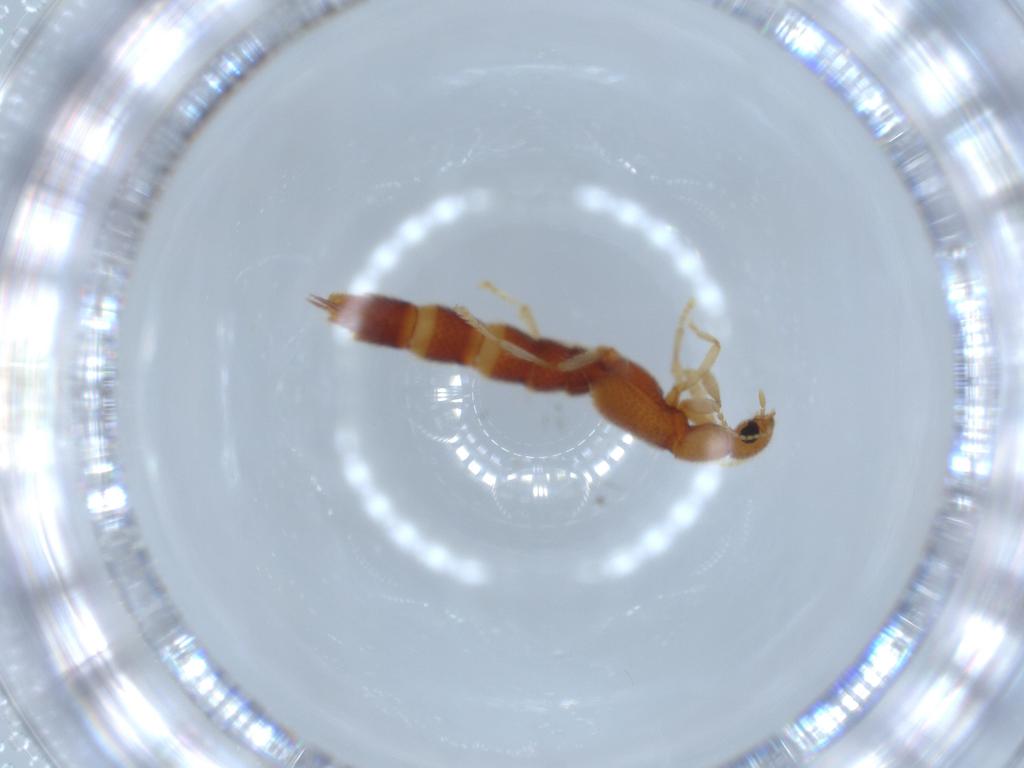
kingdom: Animalia
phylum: Arthropoda
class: Insecta
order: Coleoptera
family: Staphylinidae
